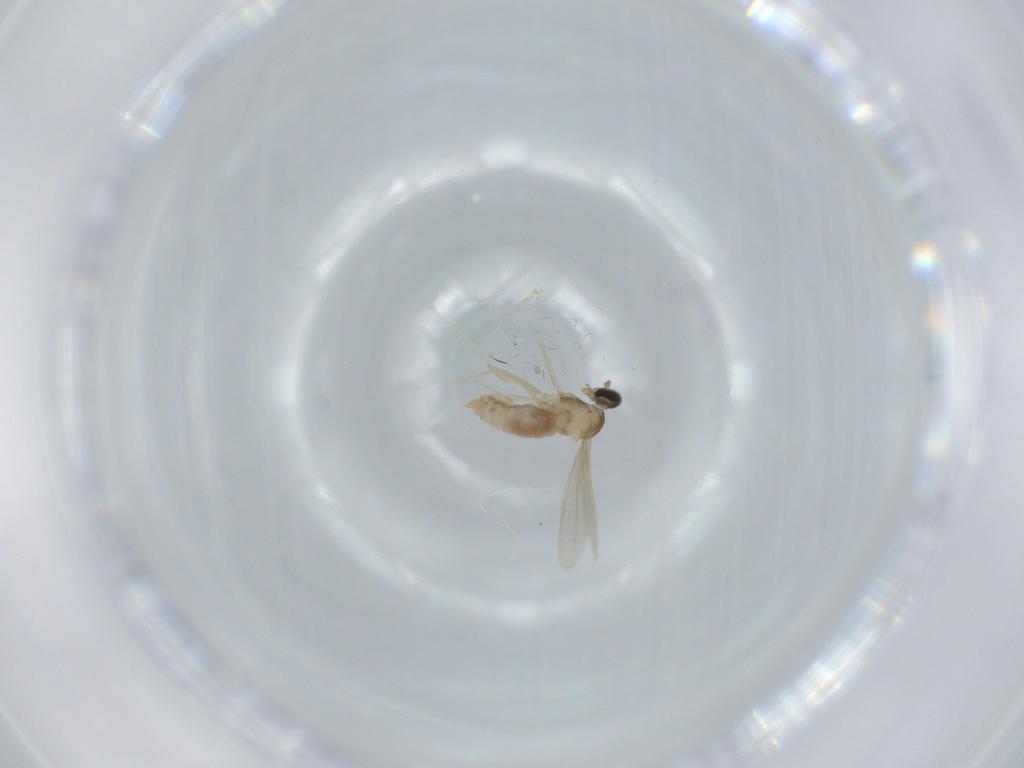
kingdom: Animalia
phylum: Arthropoda
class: Insecta
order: Diptera
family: Cecidomyiidae
